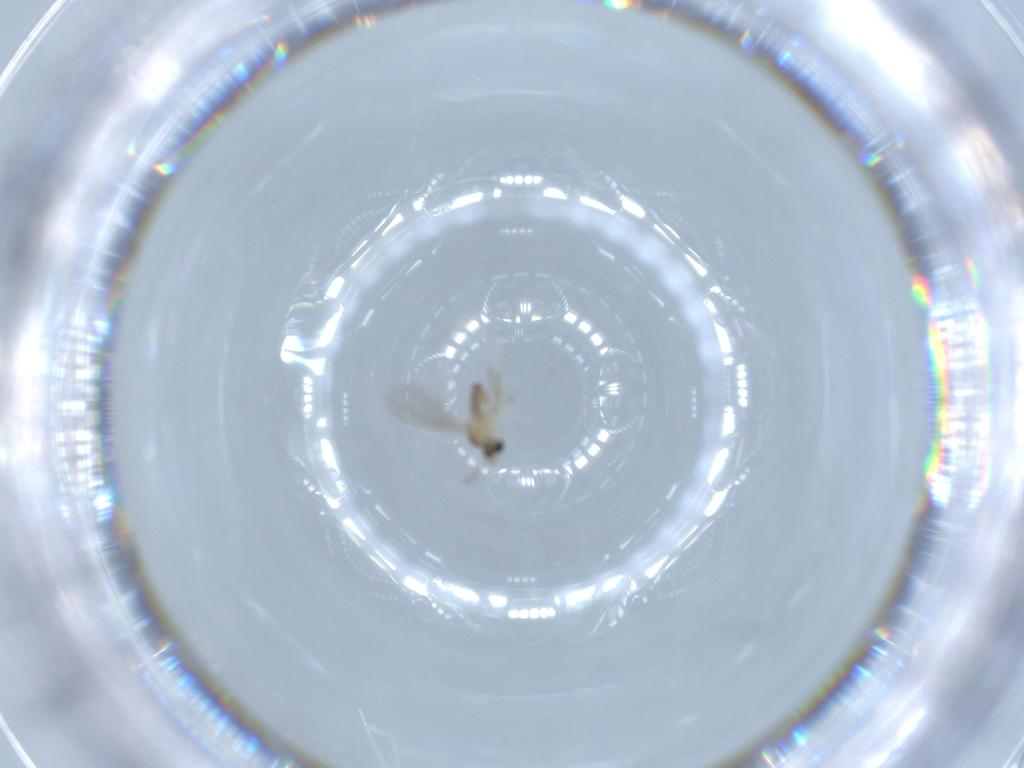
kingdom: Animalia
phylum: Arthropoda
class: Insecta
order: Diptera
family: Cecidomyiidae
